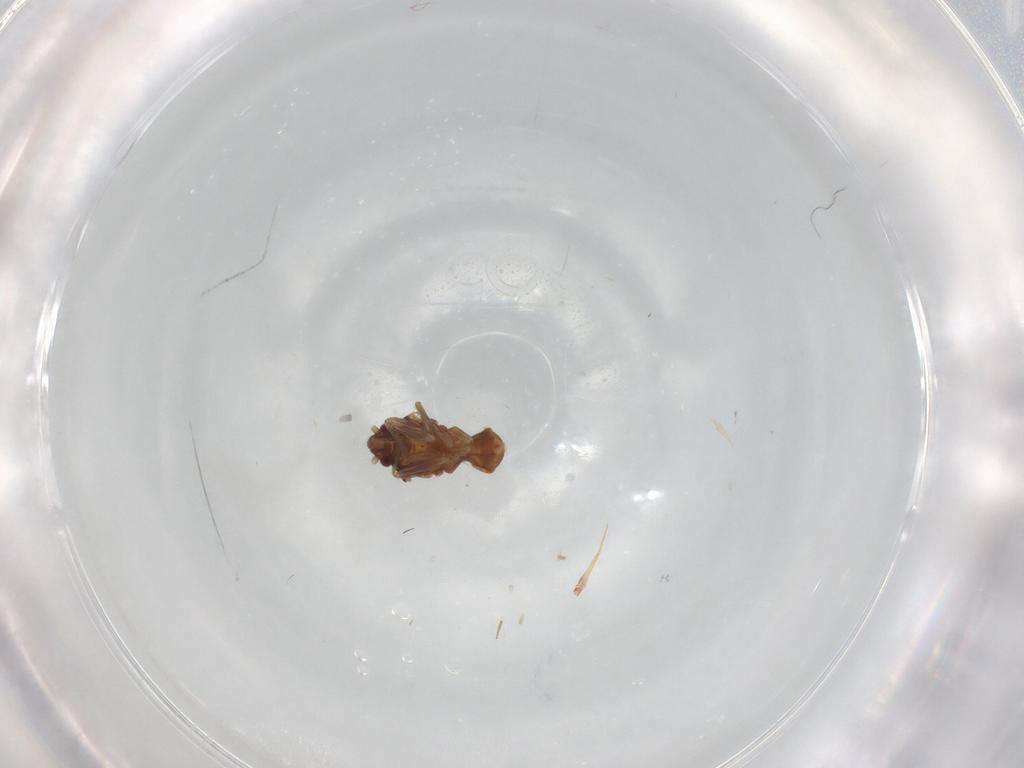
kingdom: Animalia
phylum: Arthropoda
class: Insecta
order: Hemiptera
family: Ceratocombidae
